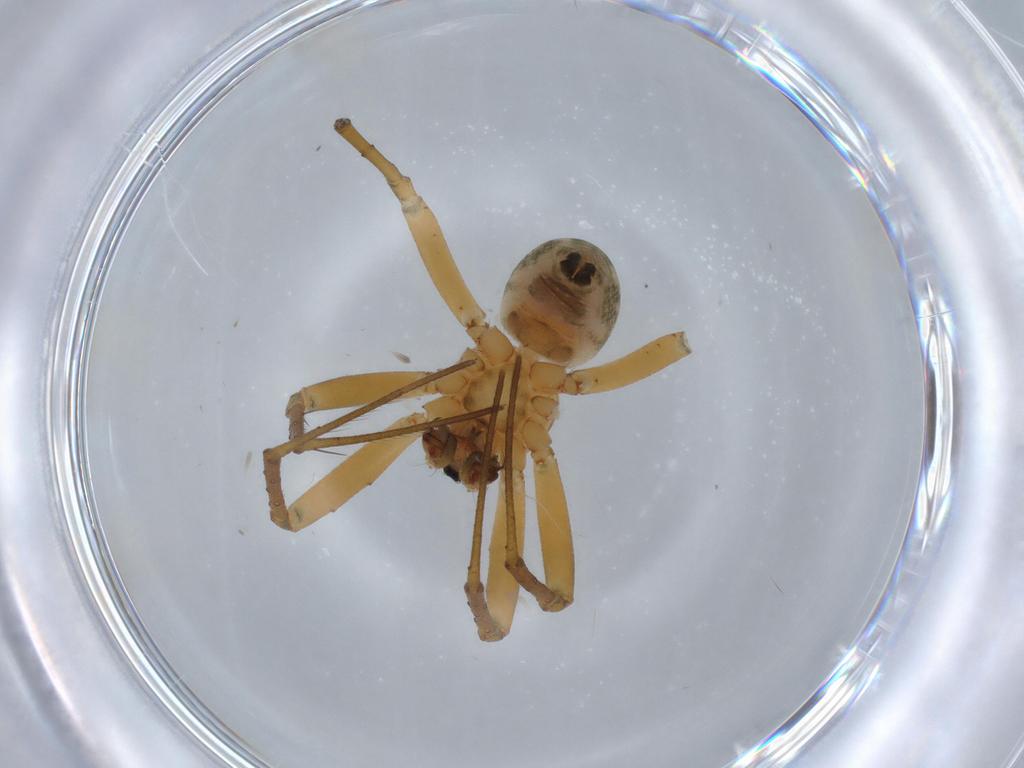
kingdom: Animalia
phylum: Arthropoda
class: Arachnida
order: Araneae
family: Araneidae
